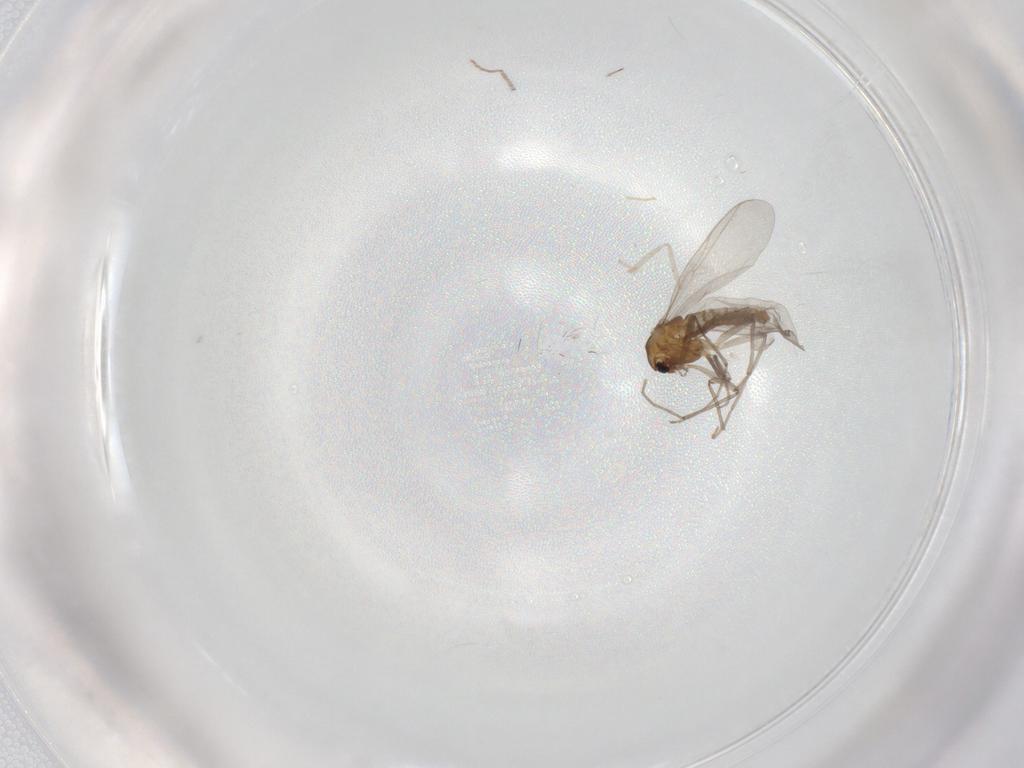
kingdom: Animalia
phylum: Arthropoda
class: Insecta
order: Diptera
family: Chironomidae
